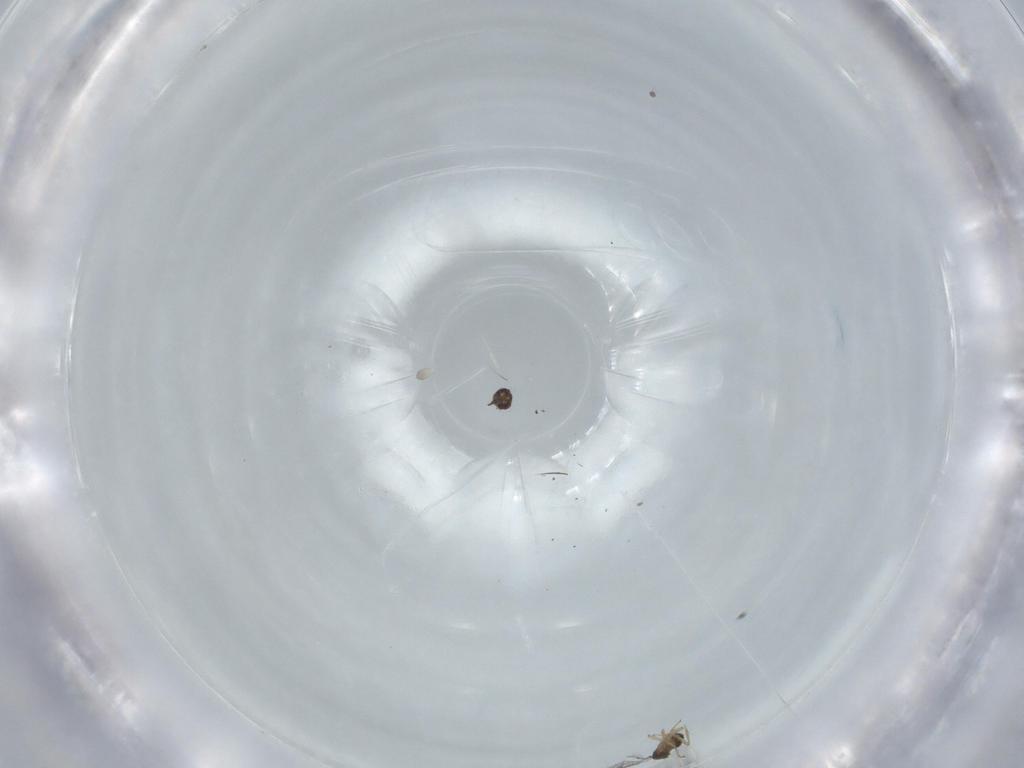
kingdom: Animalia
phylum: Arthropoda
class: Insecta
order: Hymenoptera
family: Trichogrammatidae
